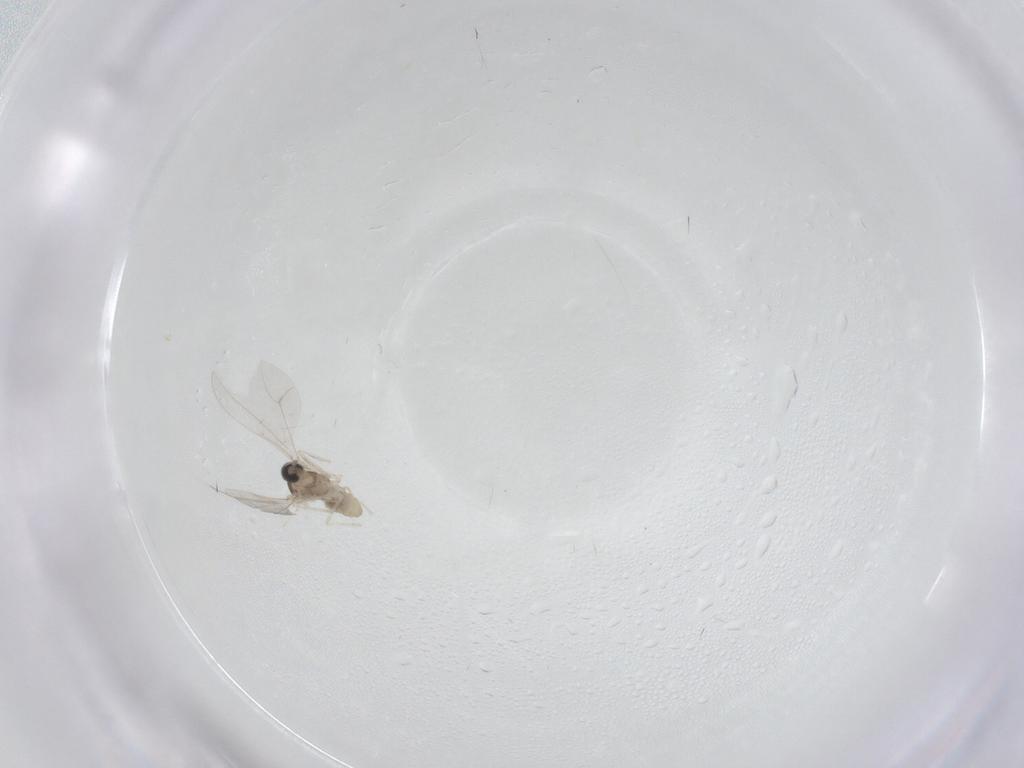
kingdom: Animalia
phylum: Arthropoda
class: Insecta
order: Diptera
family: Cecidomyiidae
